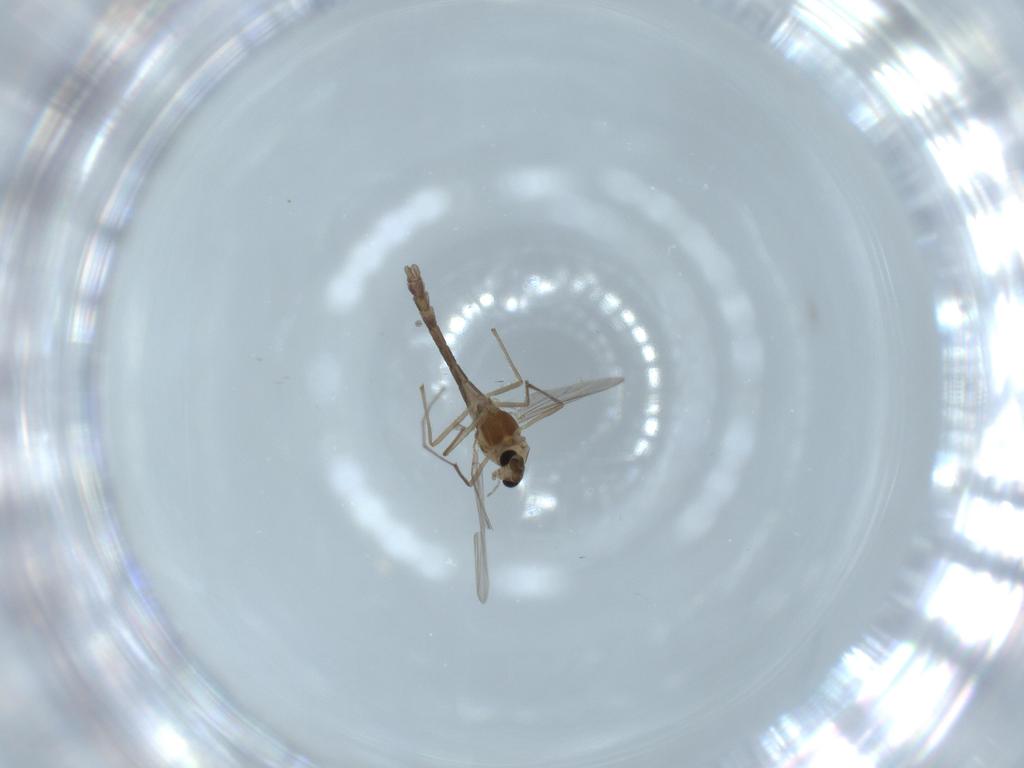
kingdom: Animalia
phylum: Arthropoda
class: Insecta
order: Diptera
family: Chironomidae
